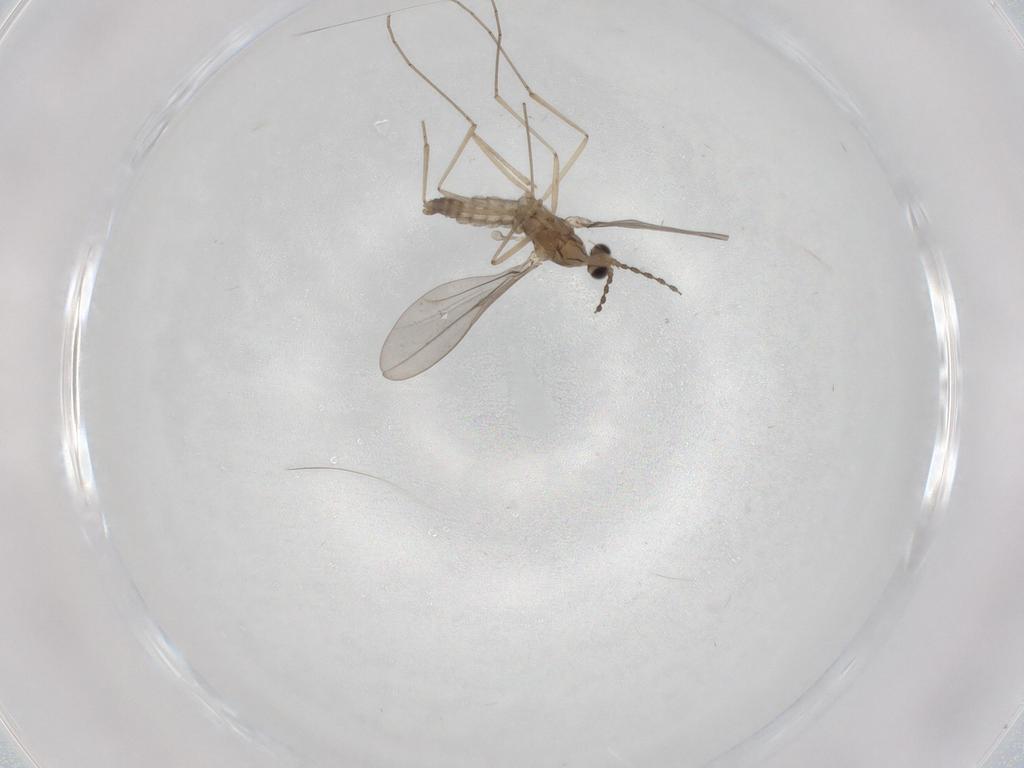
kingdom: Animalia
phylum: Arthropoda
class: Insecta
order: Diptera
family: Cecidomyiidae
